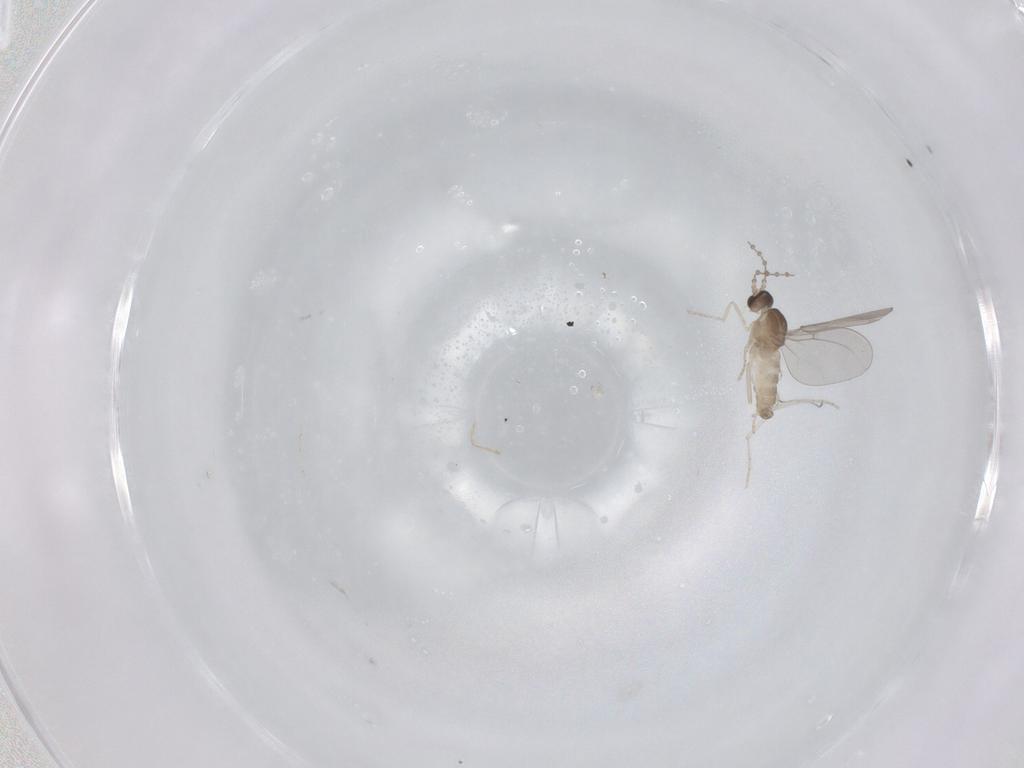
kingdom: Animalia
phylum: Arthropoda
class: Insecta
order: Diptera
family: Cecidomyiidae
